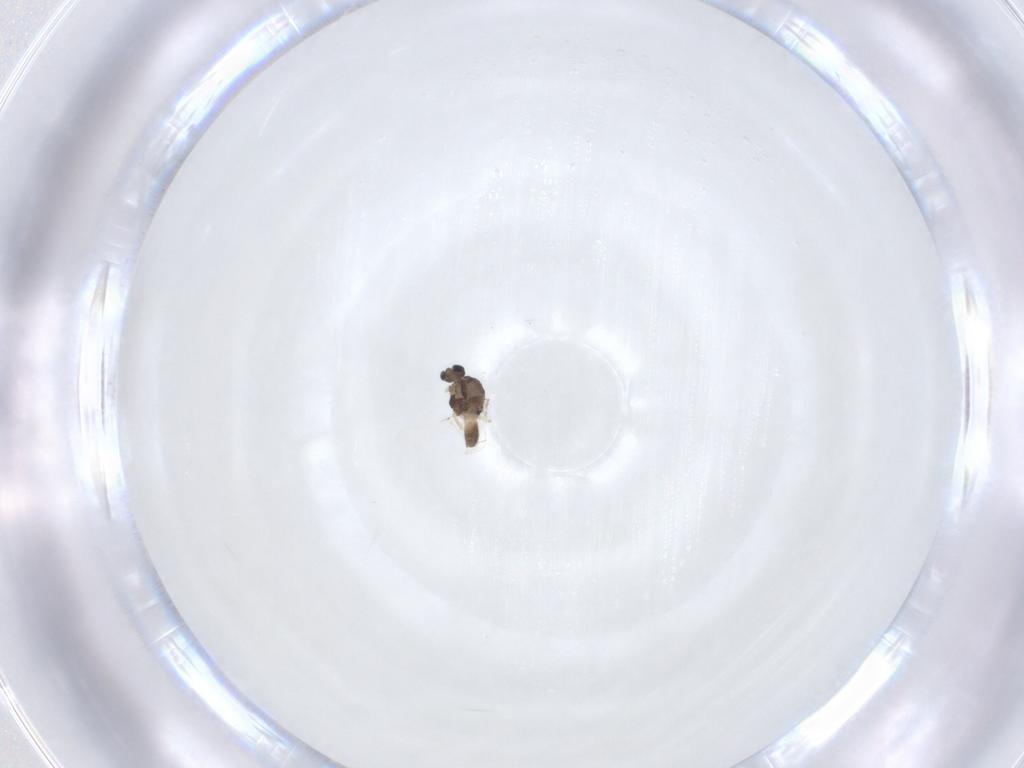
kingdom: Animalia
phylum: Arthropoda
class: Insecta
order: Diptera
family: Chironomidae
